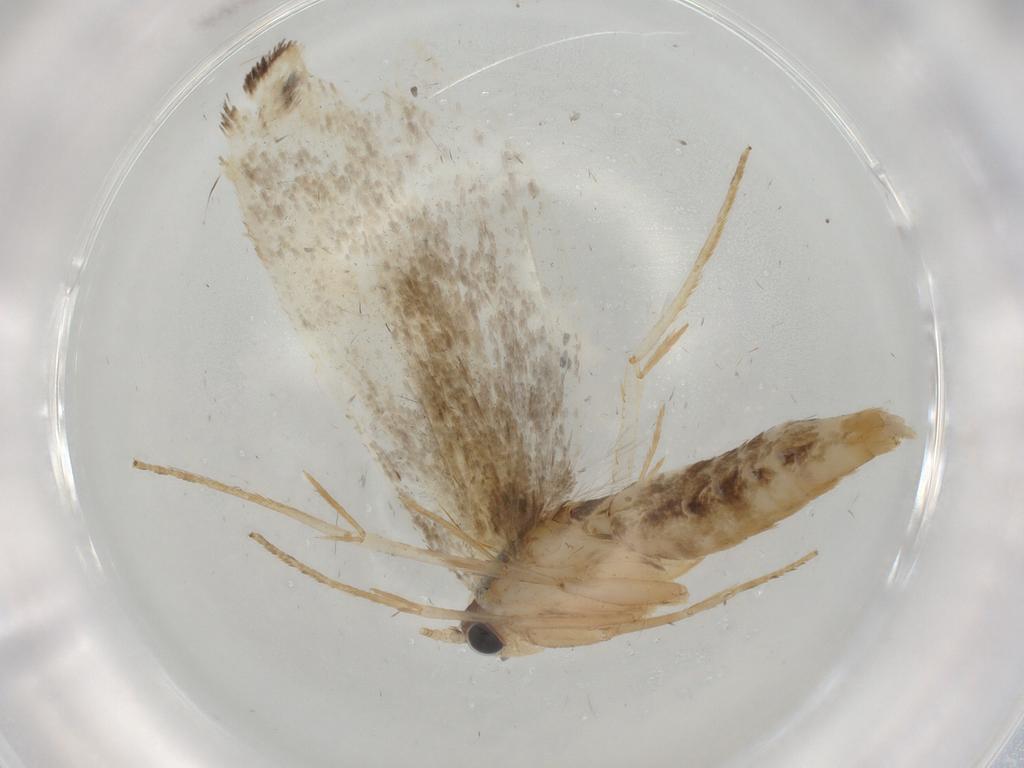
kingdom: Animalia
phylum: Arthropoda
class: Insecta
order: Lepidoptera
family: Tineidae
